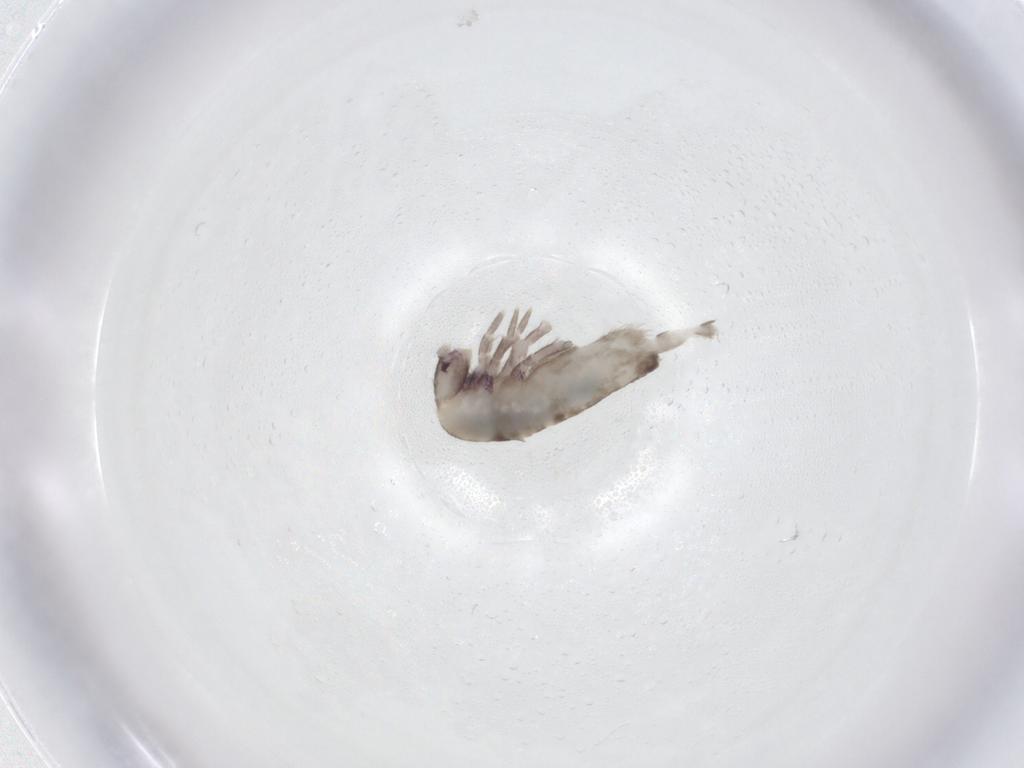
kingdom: Animalia
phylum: Arthropoda
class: Collembola
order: Entomobryomorpha
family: Entomobryidae
